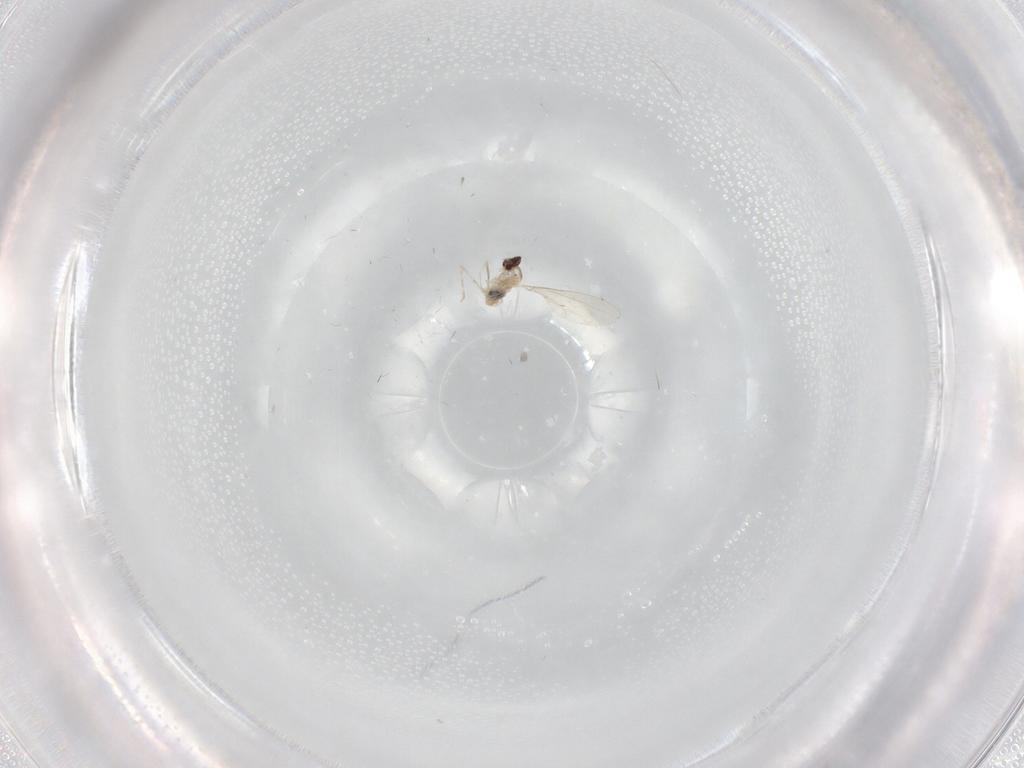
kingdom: Animalia
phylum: Arthropoda
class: Insecta
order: Diptera
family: Cecidomyiidae
